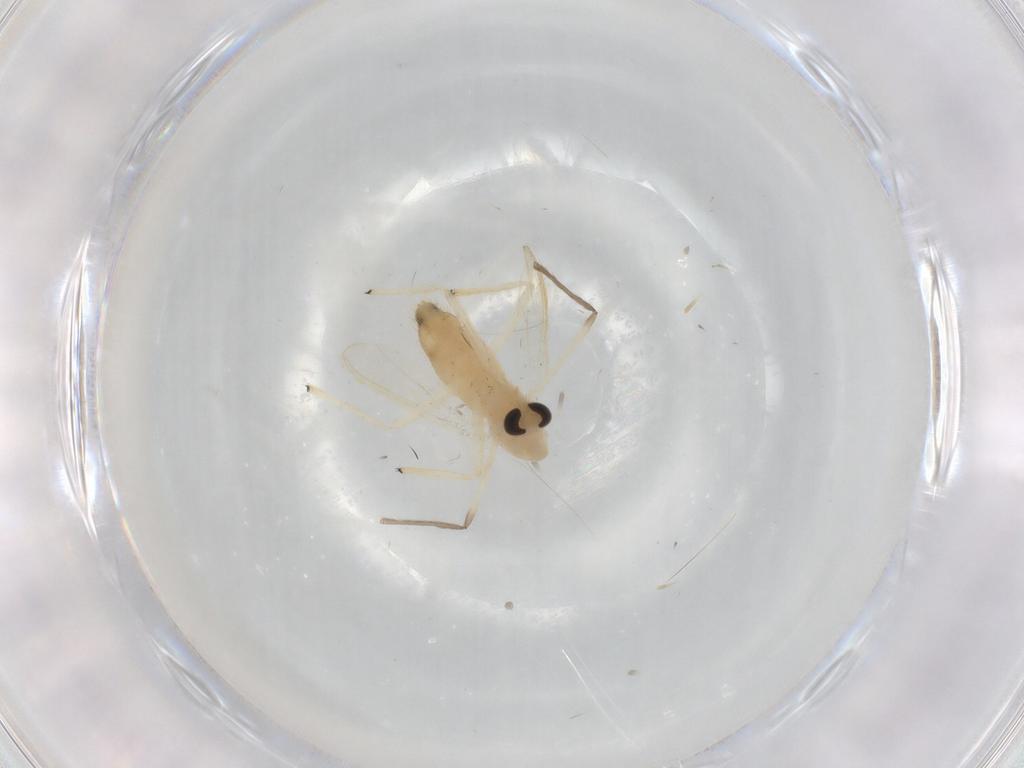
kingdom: Animalia
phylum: Arthropoda
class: Insecta
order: Diptera
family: Chironomidae
